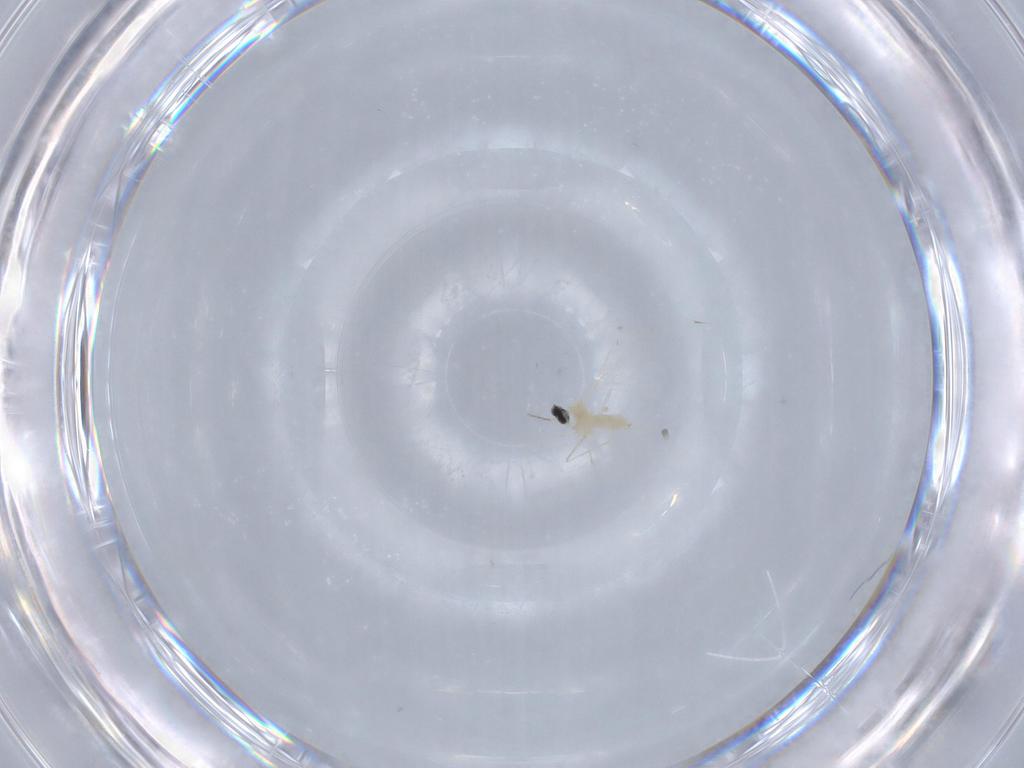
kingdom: Animalia
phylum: Arthropoda
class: Insecta
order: Diptera
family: Cecidomyiidae
